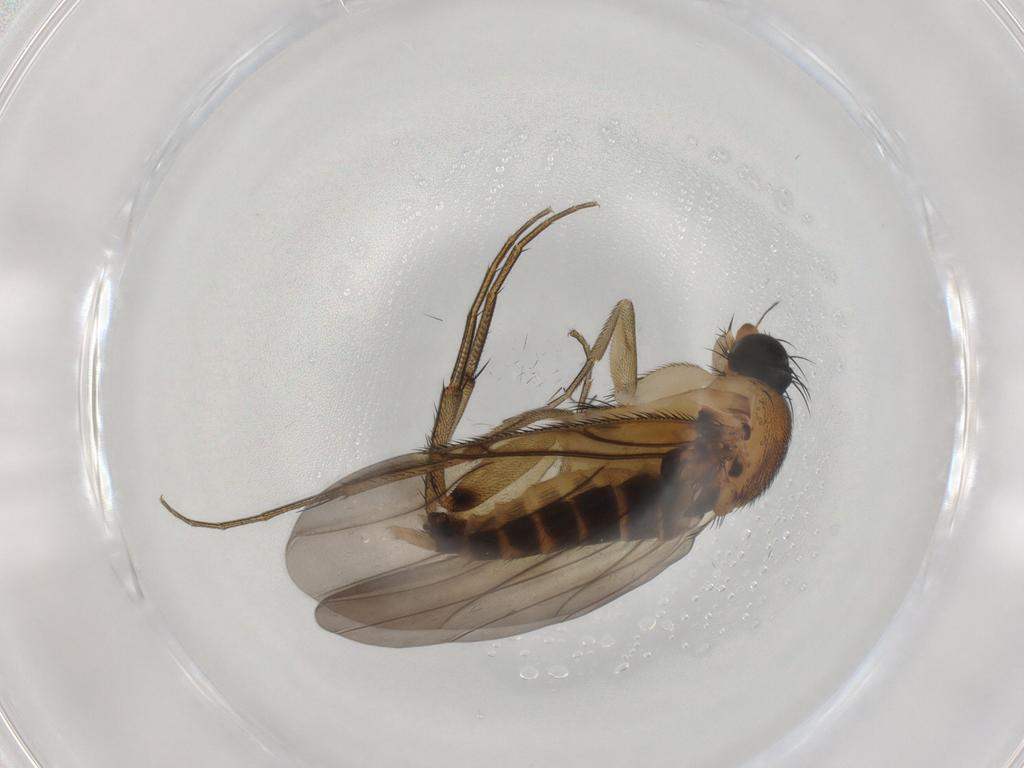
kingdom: Animalia
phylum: Arthropoda
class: Insecta
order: Diptera
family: Phoridae
